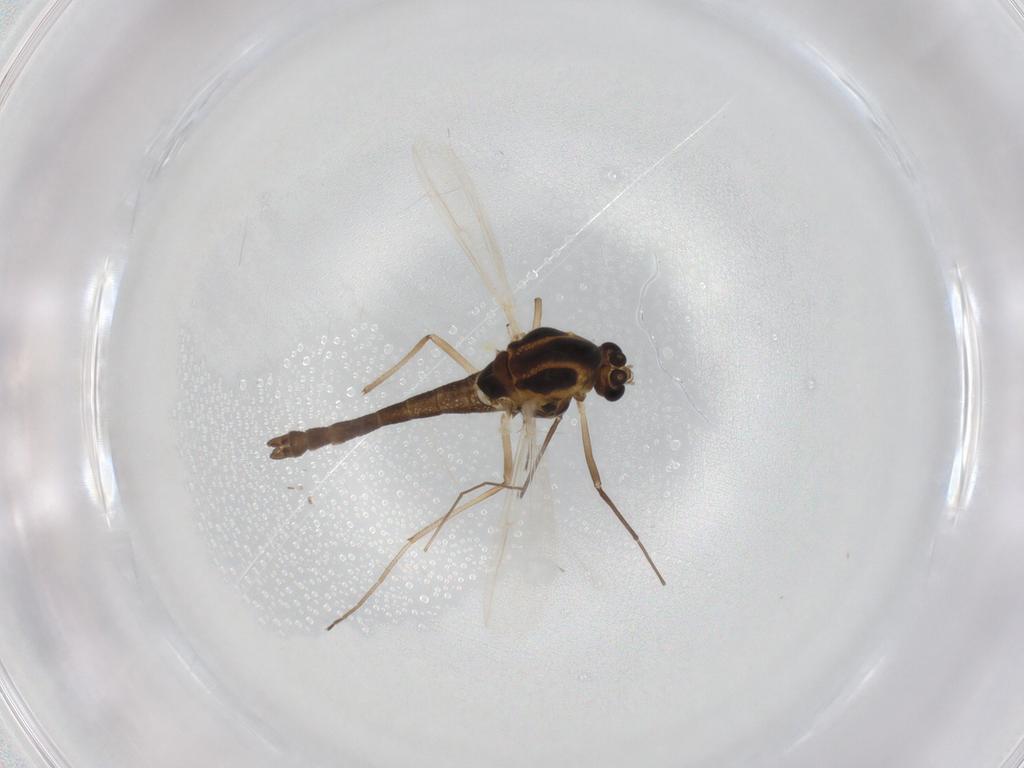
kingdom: Animalia
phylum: Arthropoda
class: Insecta
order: Diptera
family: Chironomidae
